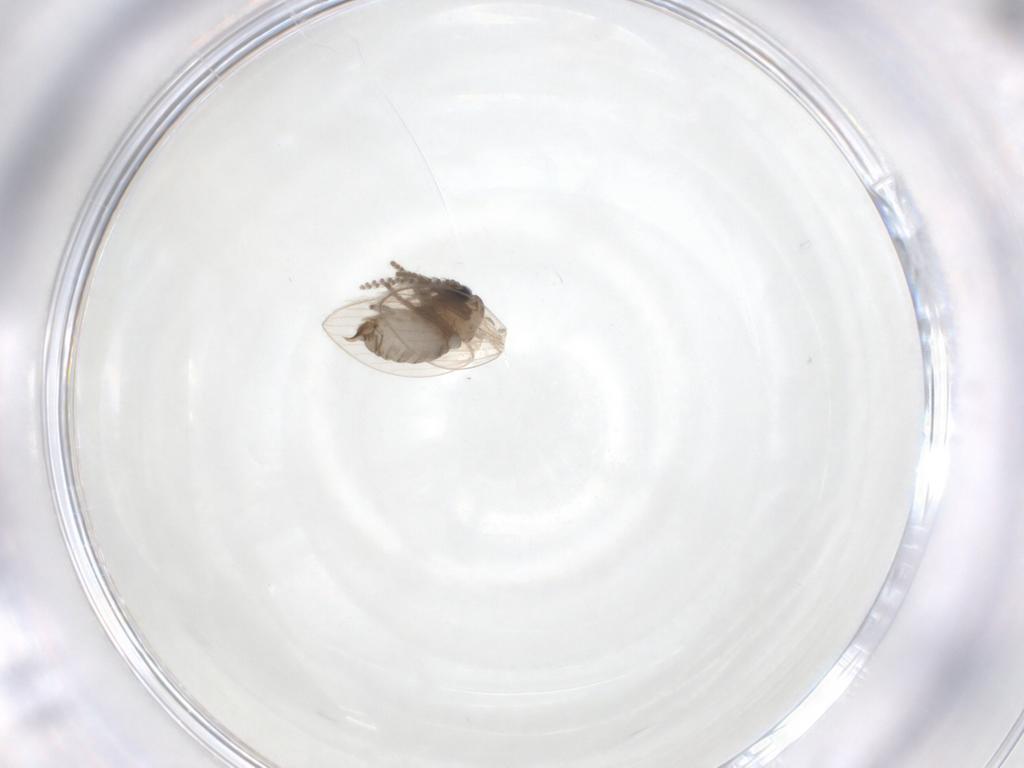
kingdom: Animalia
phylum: Arthropoda
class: Insecta
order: Diptera
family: Psychodidae
